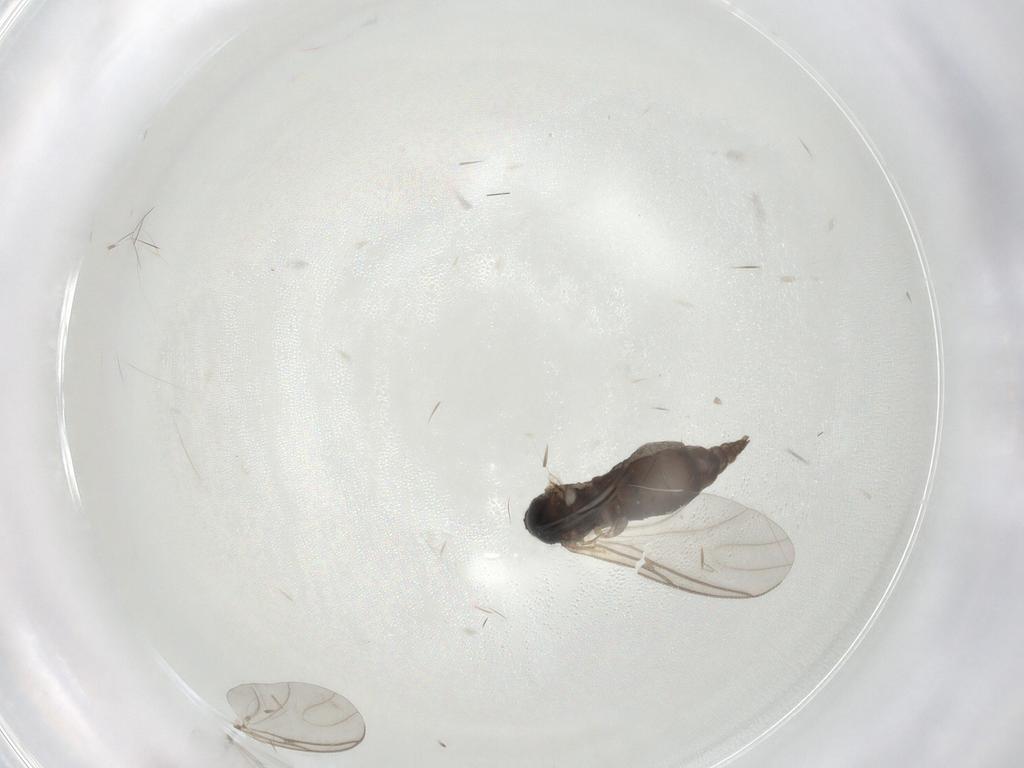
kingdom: Animalia
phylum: Arthropoda
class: Insecta
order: Diptera
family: Sciaridae
